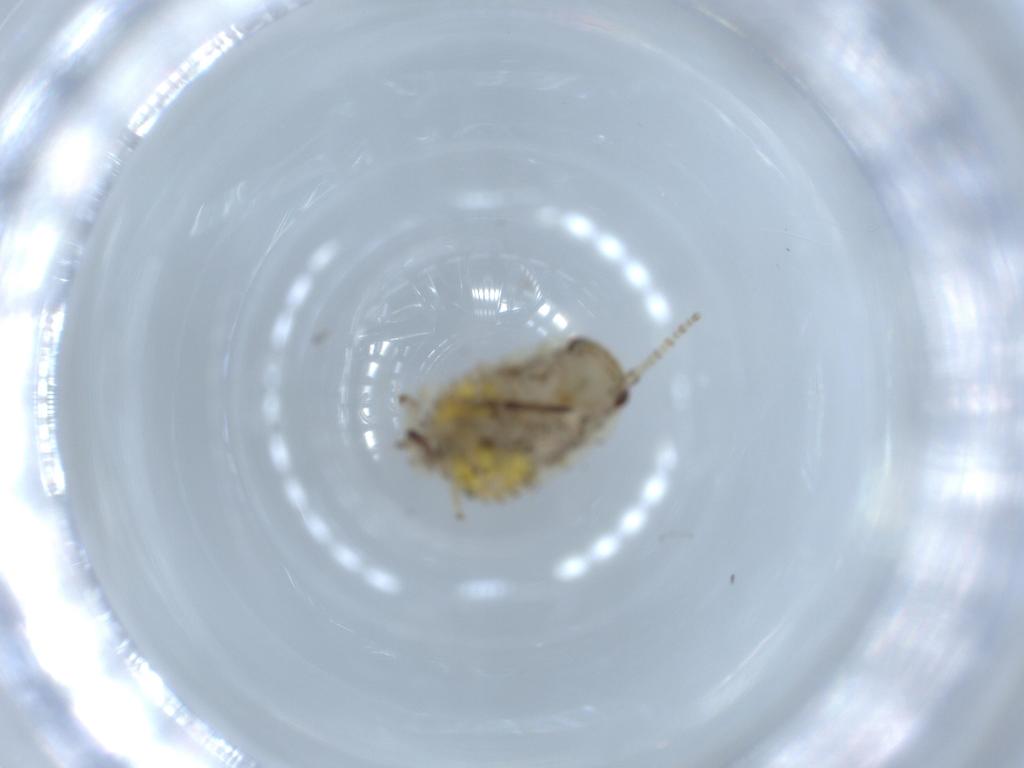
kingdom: Animalia
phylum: Arthropoda
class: Insecta
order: Blattodea
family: Ectobiidae
